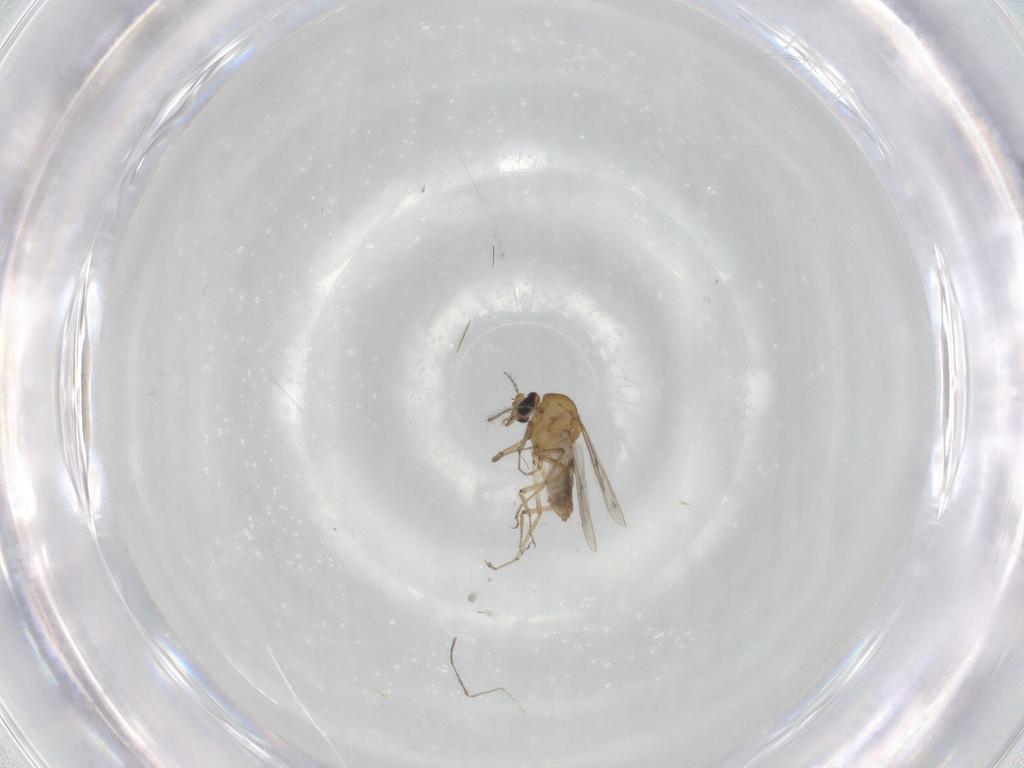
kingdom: Animalia
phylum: Arthropoda
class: Insecta
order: Diptera
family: Cecidomyiidae
